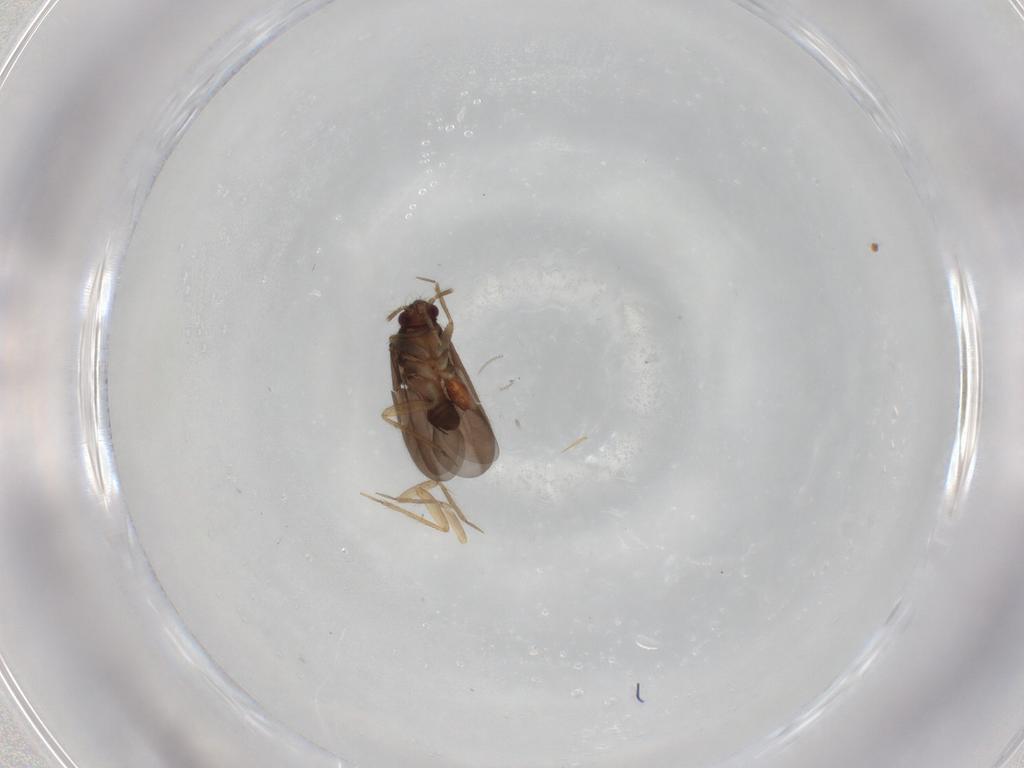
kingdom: Animalia
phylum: Arthropoda
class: Insecta
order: Hemiptera
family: Ceratocombidae
